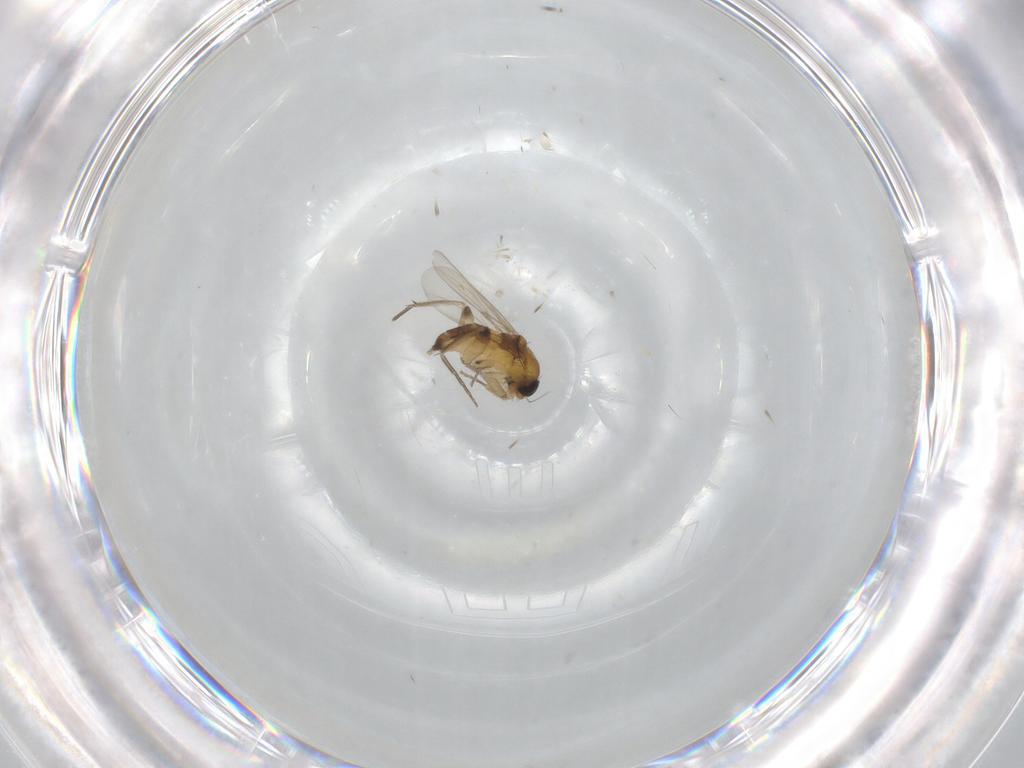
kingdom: Animalia
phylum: Arthropoda
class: Insecta
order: Diptera
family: Phoridae
